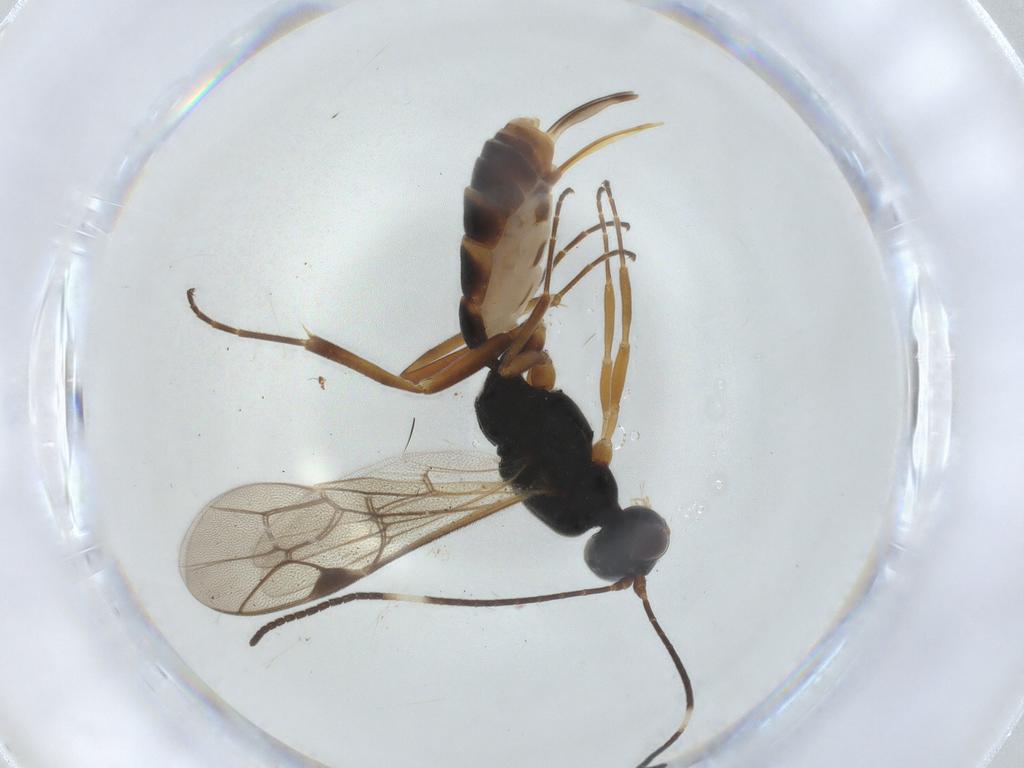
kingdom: Animalia
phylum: Arthropoda
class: Insecta
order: Hymenoptera
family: Ichneumonidae
